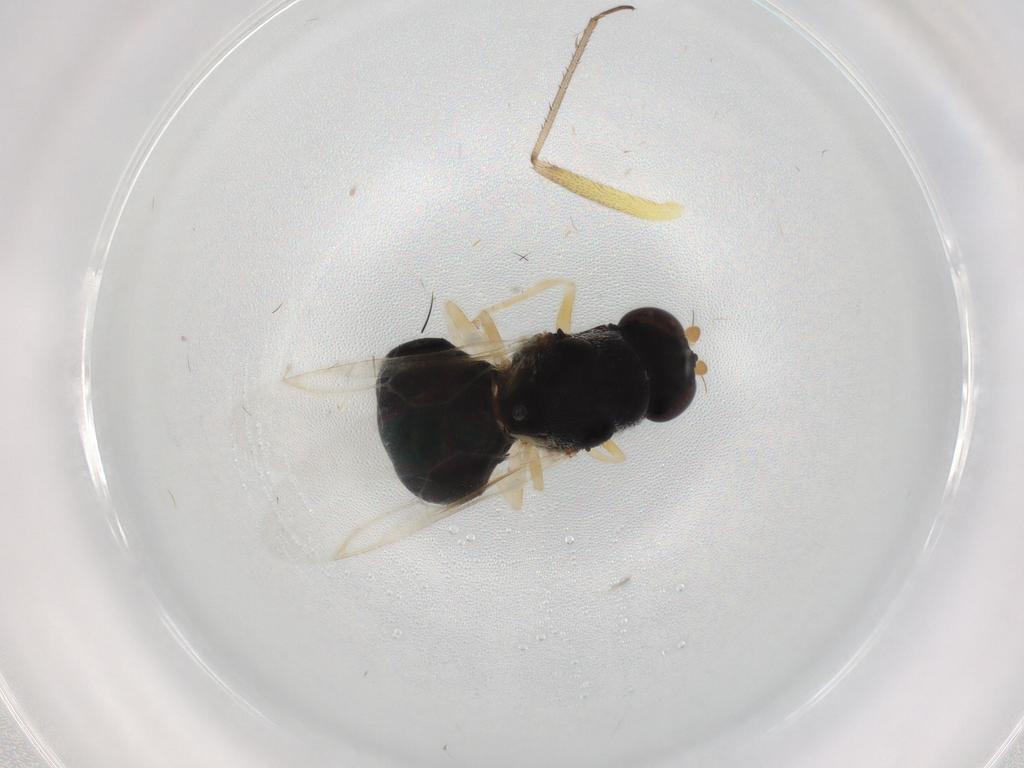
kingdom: Animalia
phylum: Arthropoda
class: Insecta
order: Diptera
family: Stratiomyidae
